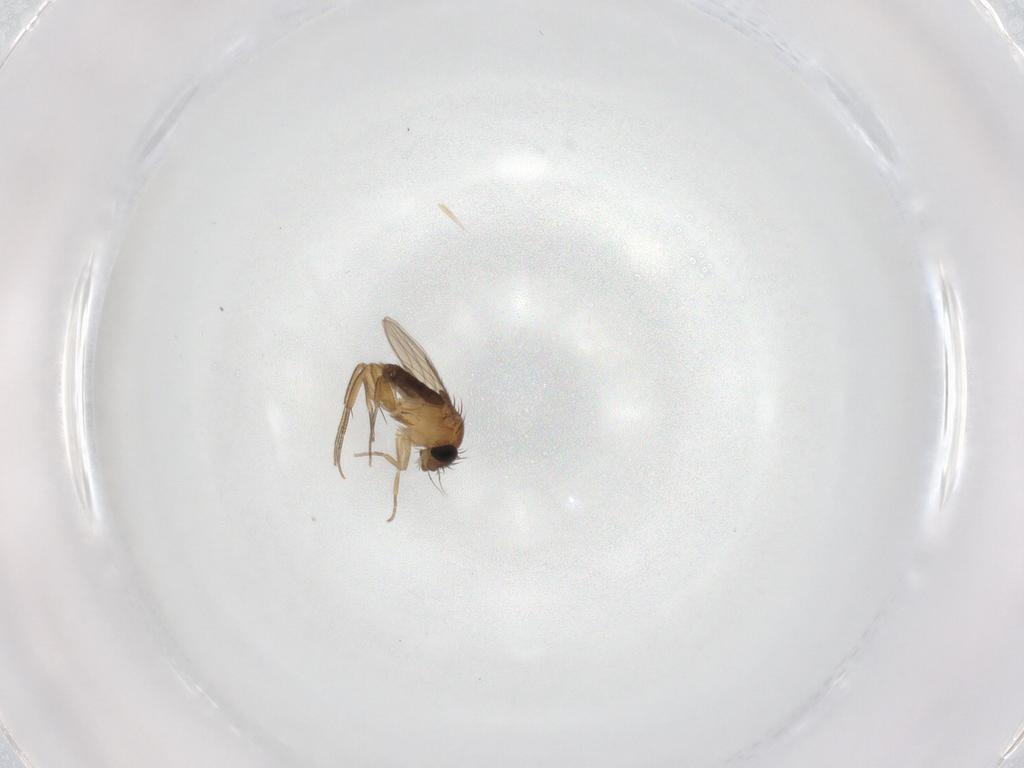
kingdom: Animalia
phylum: Arthropoda
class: Insecta
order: Diptera
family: Phoridae
